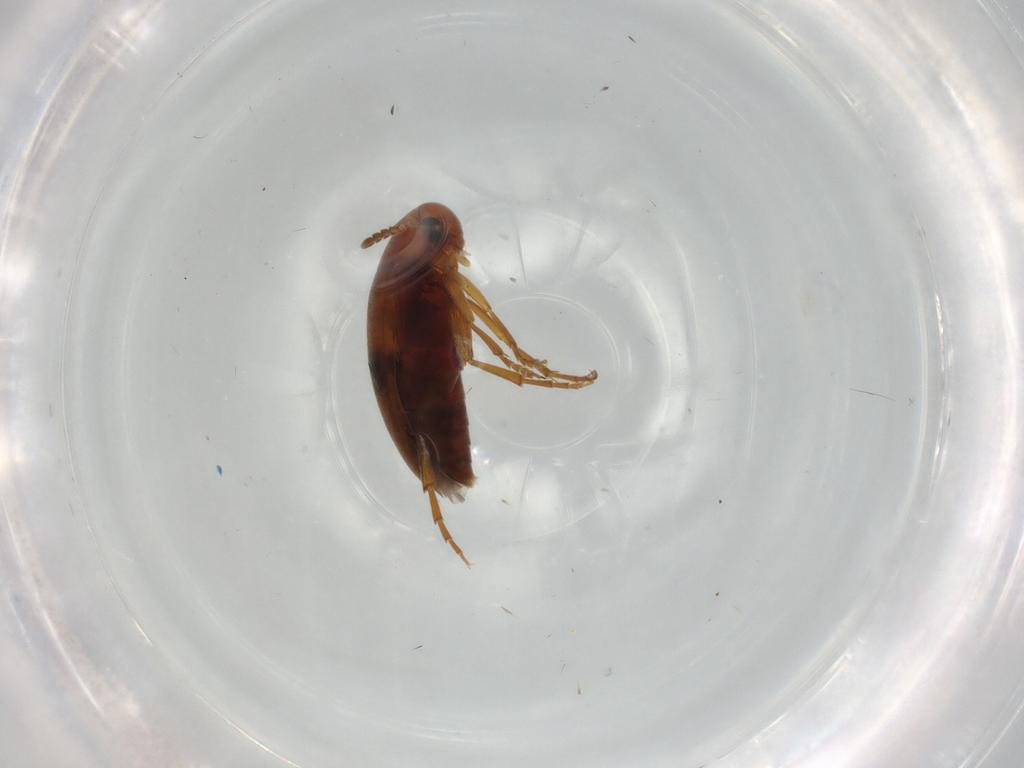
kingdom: Animalia
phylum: Arthropoda
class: Insecta
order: Coleoptera
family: Scraptiidae
